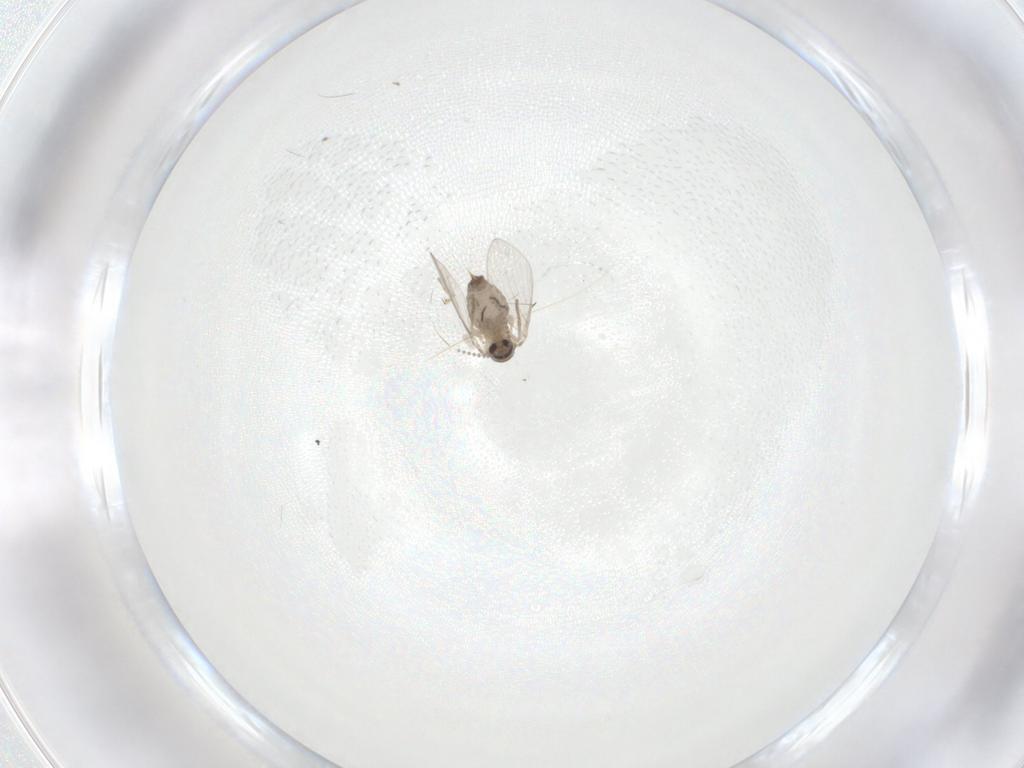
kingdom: Animalia
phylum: Arthropoda
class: Insecta
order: Diptera
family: Psychodidae
